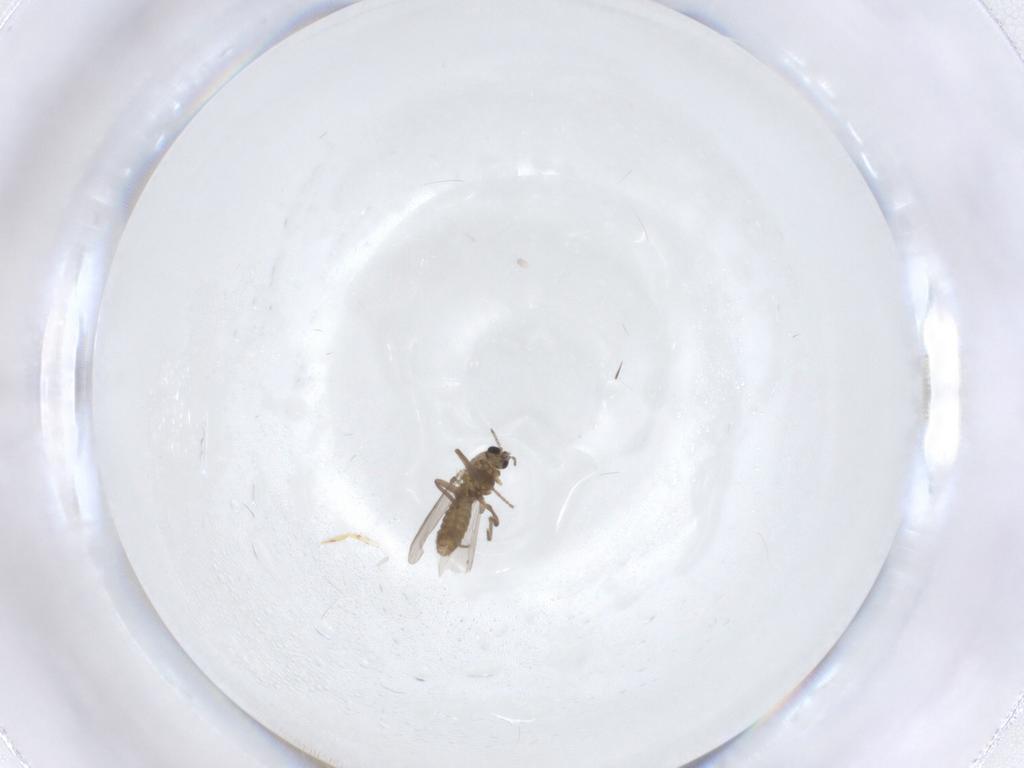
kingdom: Animalia
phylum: Arthropoda
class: Insecta
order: Diptera
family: Chironomidae
